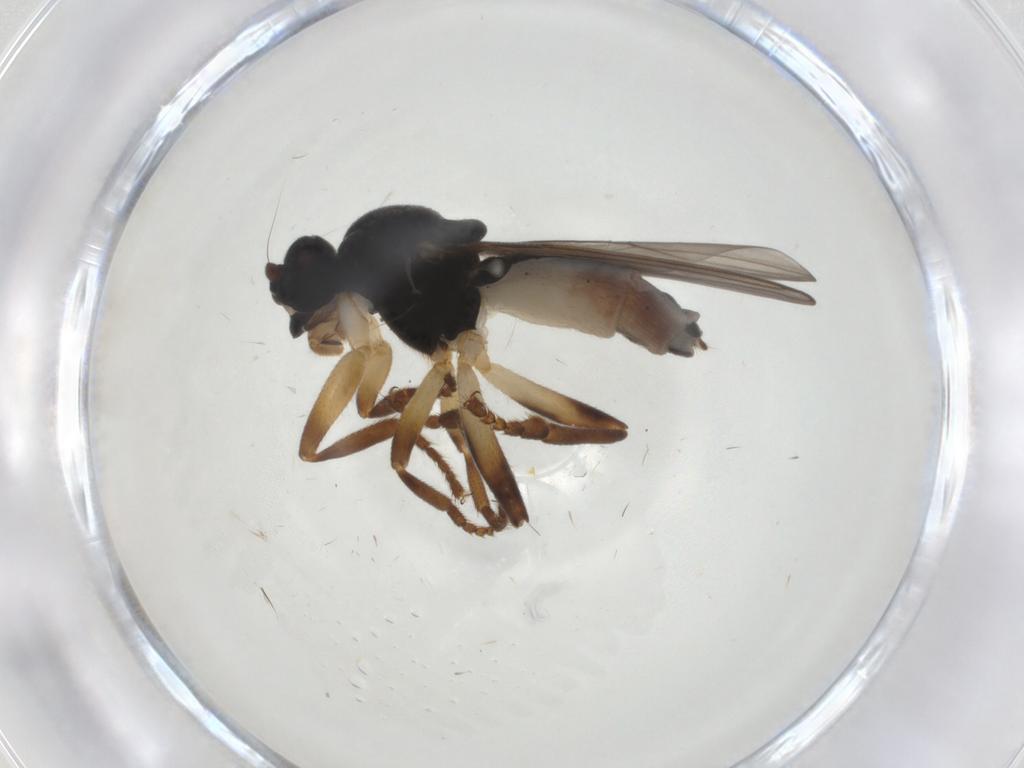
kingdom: Animalia
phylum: Arthropoda
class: Insecta
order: Diptera
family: Sphaeroceridae
